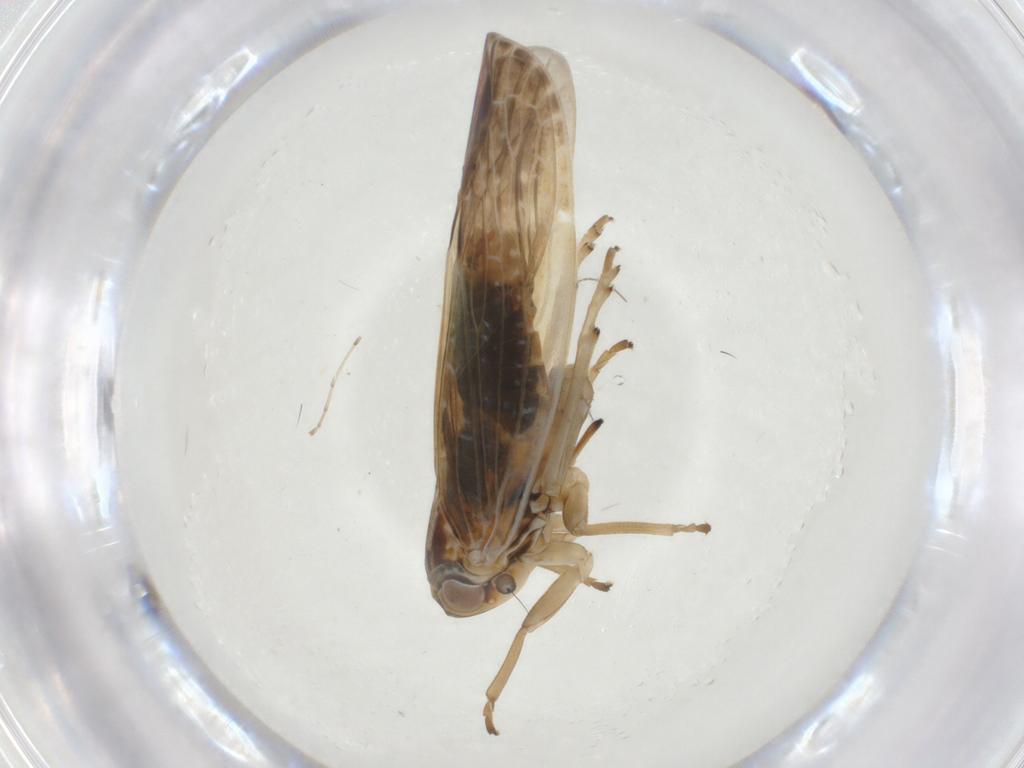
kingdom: Animalia
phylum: Arthropoda
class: Insecta
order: Hemiptera
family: Achilidae
